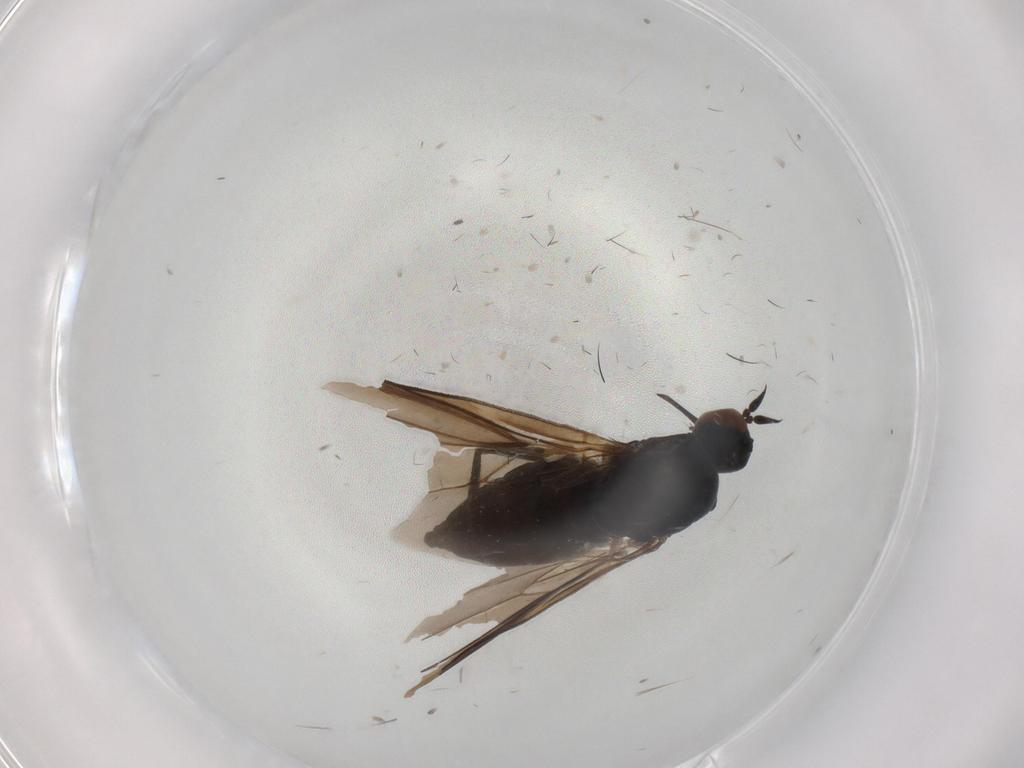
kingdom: Animalia
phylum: Arthropoda
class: Insecta
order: Diptera
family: Empididae
